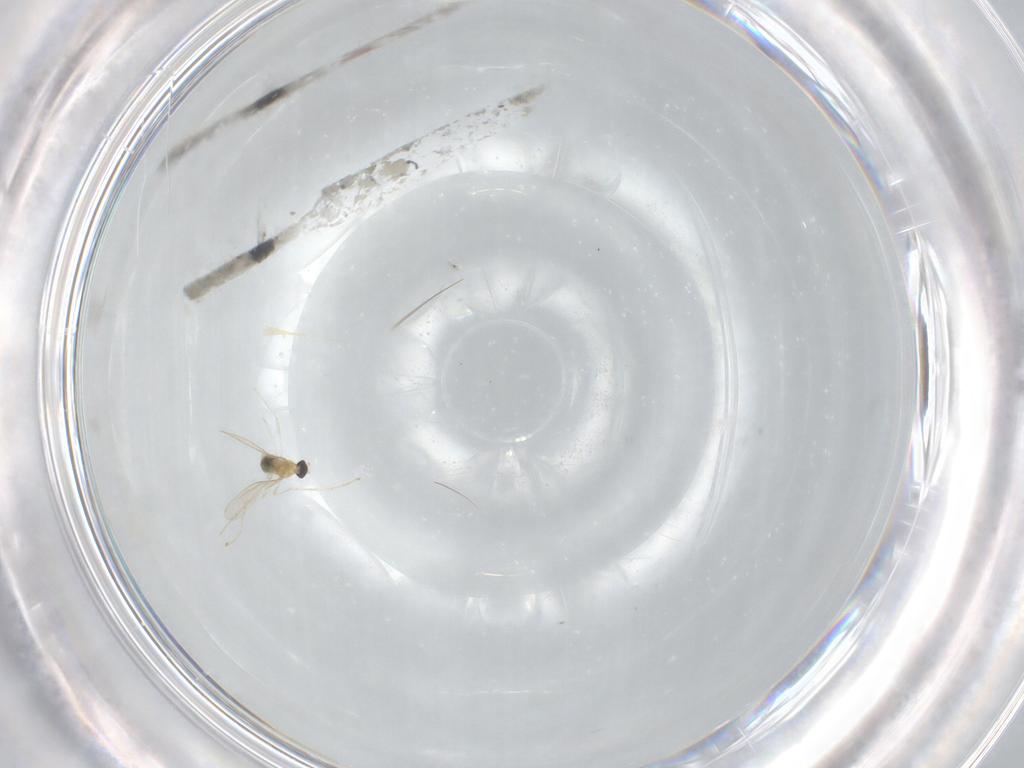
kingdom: Animalia
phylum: Arthropoda
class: Insecta
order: Diptera
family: Cecidomyiidae
